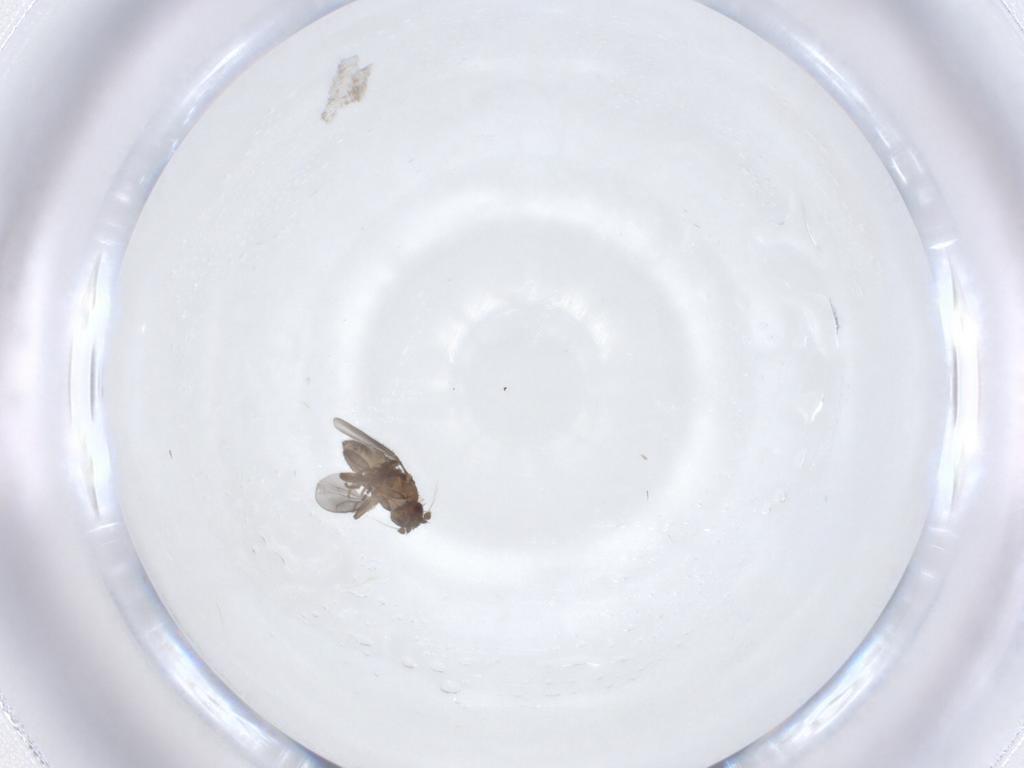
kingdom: Animalia
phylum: Arthropoda
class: Insecta
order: Diptera
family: Sphaeroceridae
